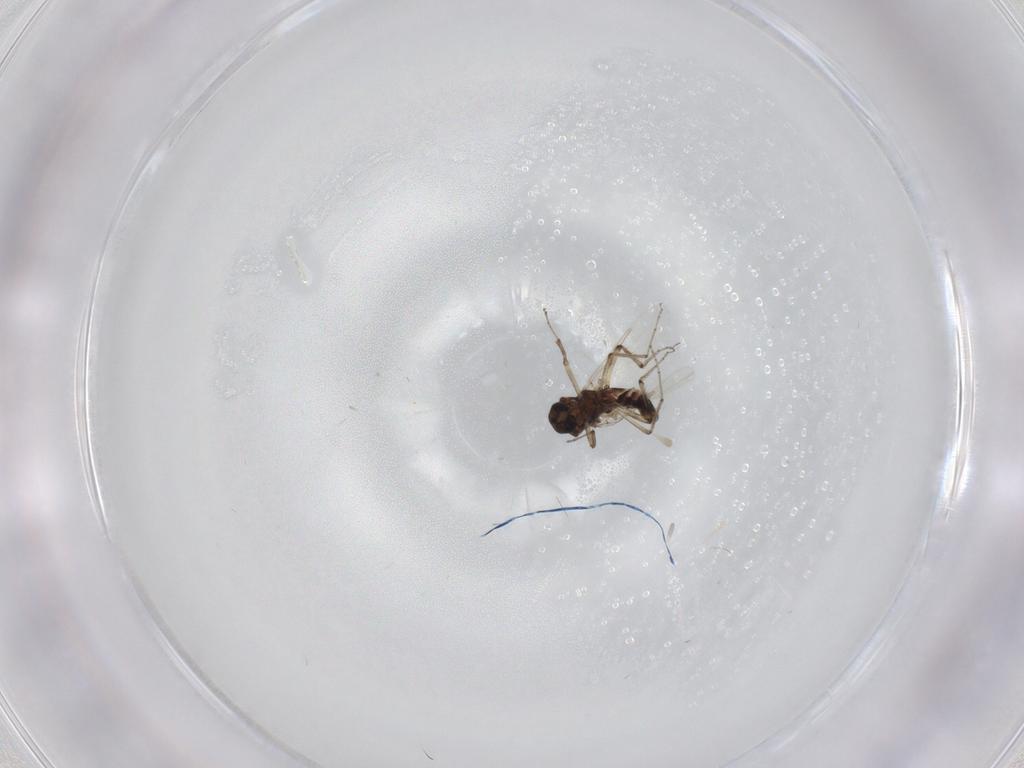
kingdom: Animalia
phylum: Arthropoda
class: Insecta
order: Diptera
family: Ceratopogonidae
